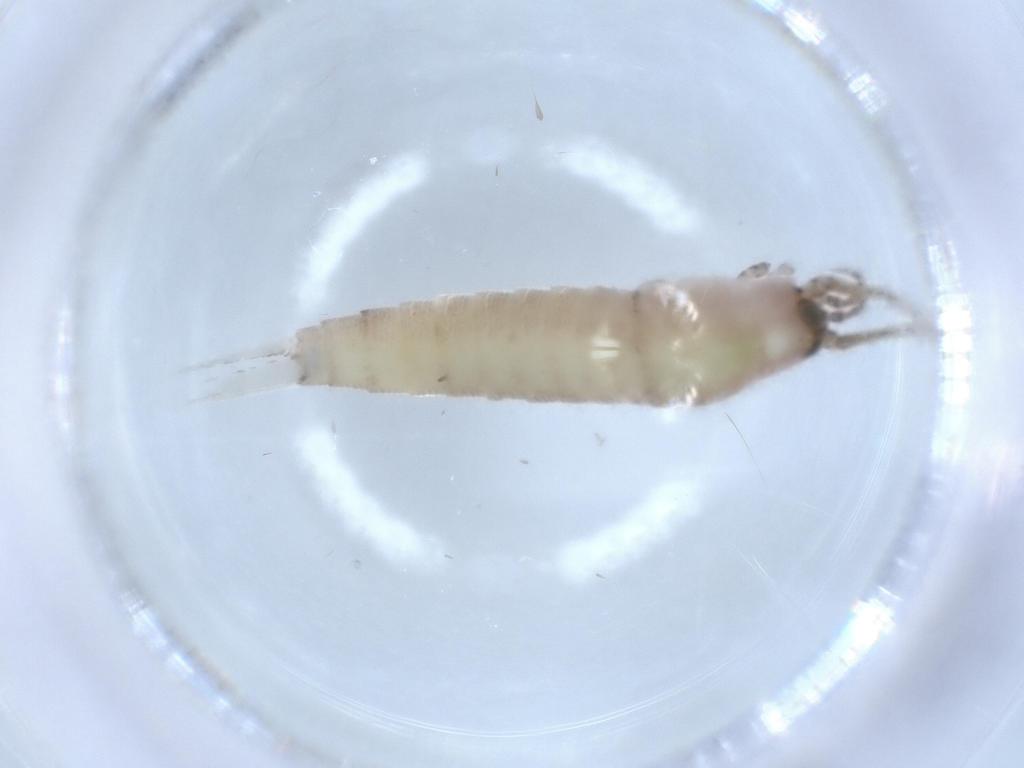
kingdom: Animalia
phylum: Arthropoda
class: Insecta
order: Archaeognatha
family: Machilidae
